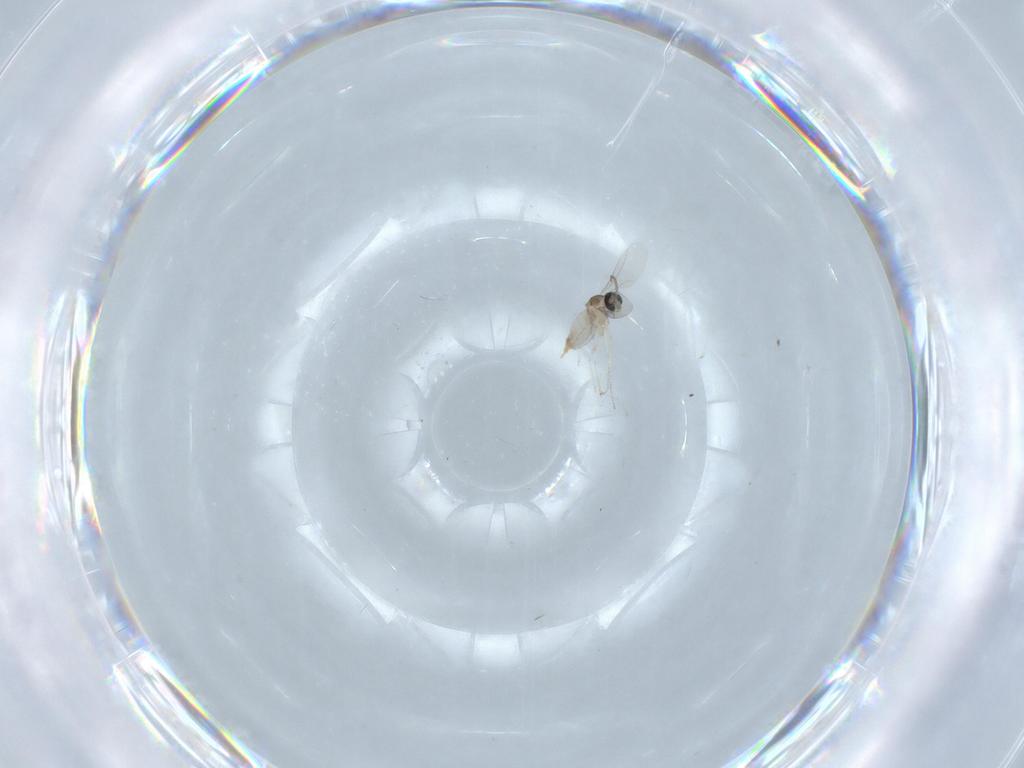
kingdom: Animalia
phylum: Arthropoda
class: Insecta
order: Diptera
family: Cecidomyiidae
